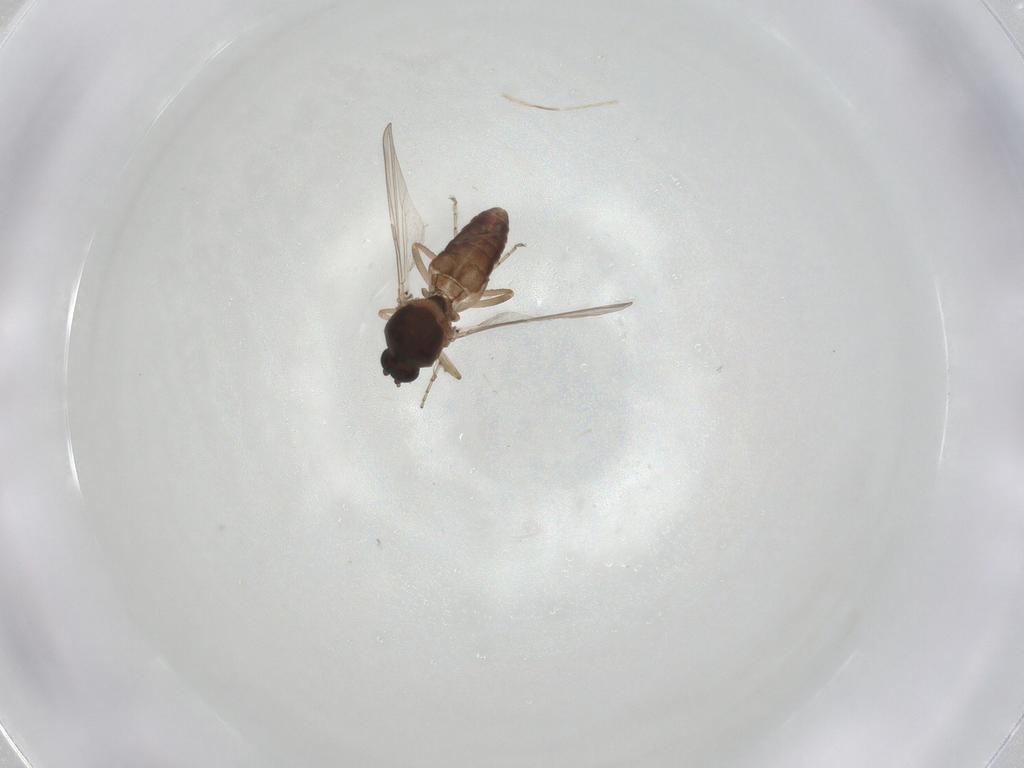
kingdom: Animalia
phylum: Arthropoda
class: Insecta
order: Diptera
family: Ceratopogonidae
